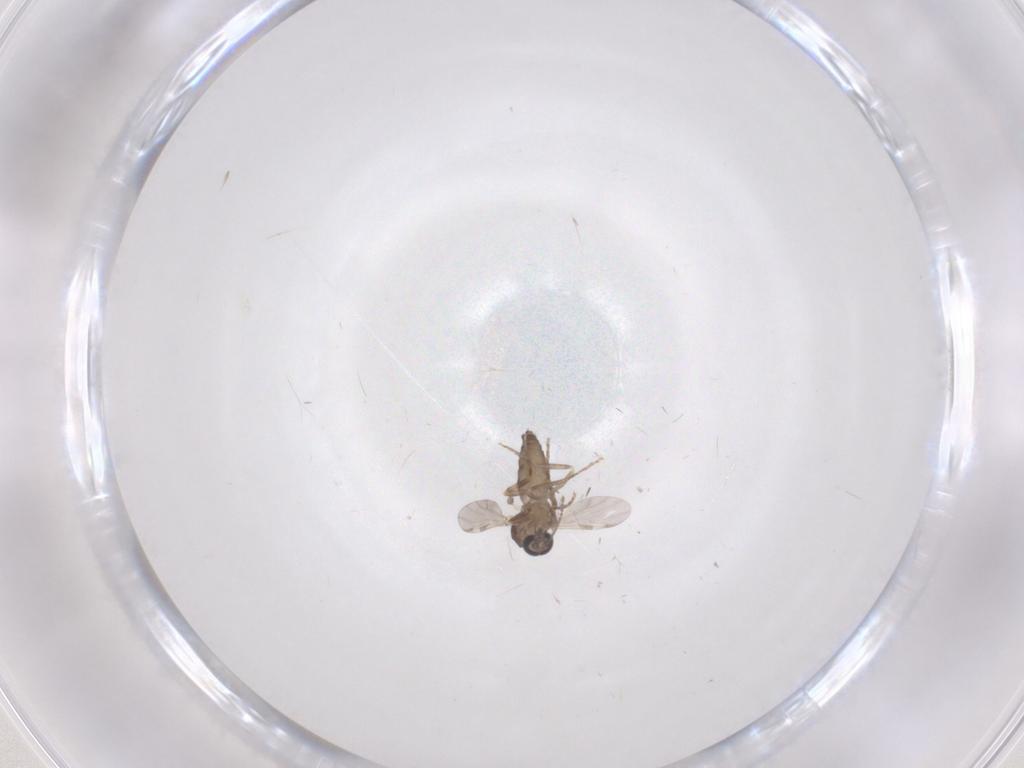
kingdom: Animalia
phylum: Arthropoda
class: Insecta
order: Diptera
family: Ceratopogonidae
